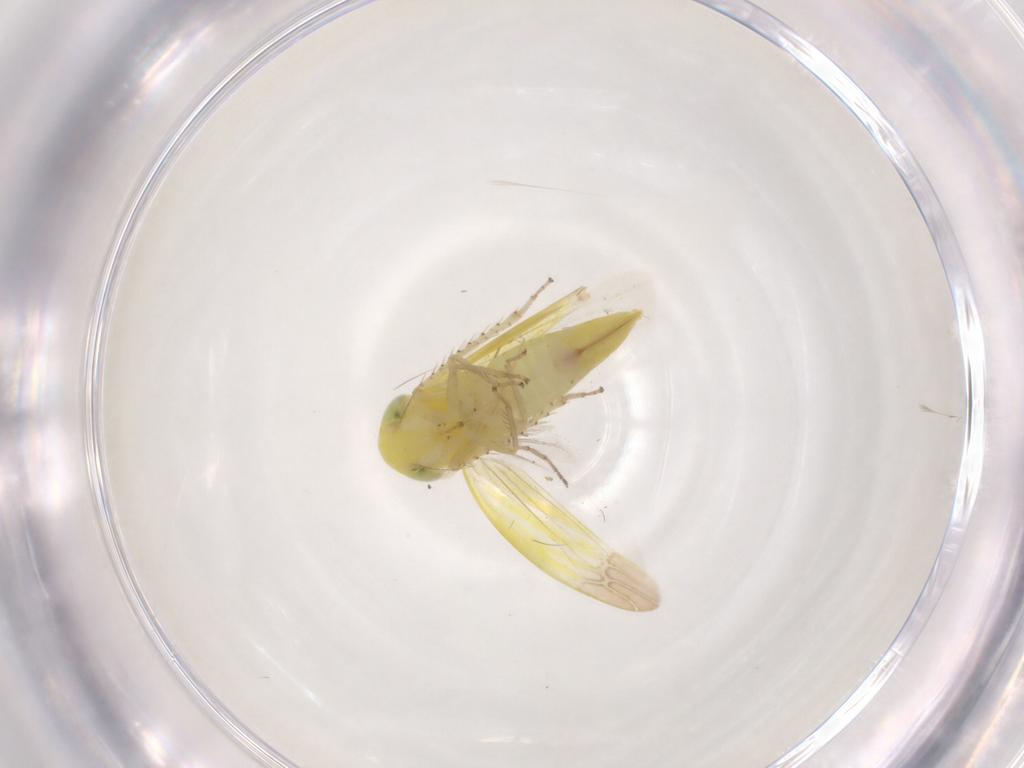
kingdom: Animalia
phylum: Arthropoda
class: Insecta
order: Hemiptera
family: Cicadellidae
